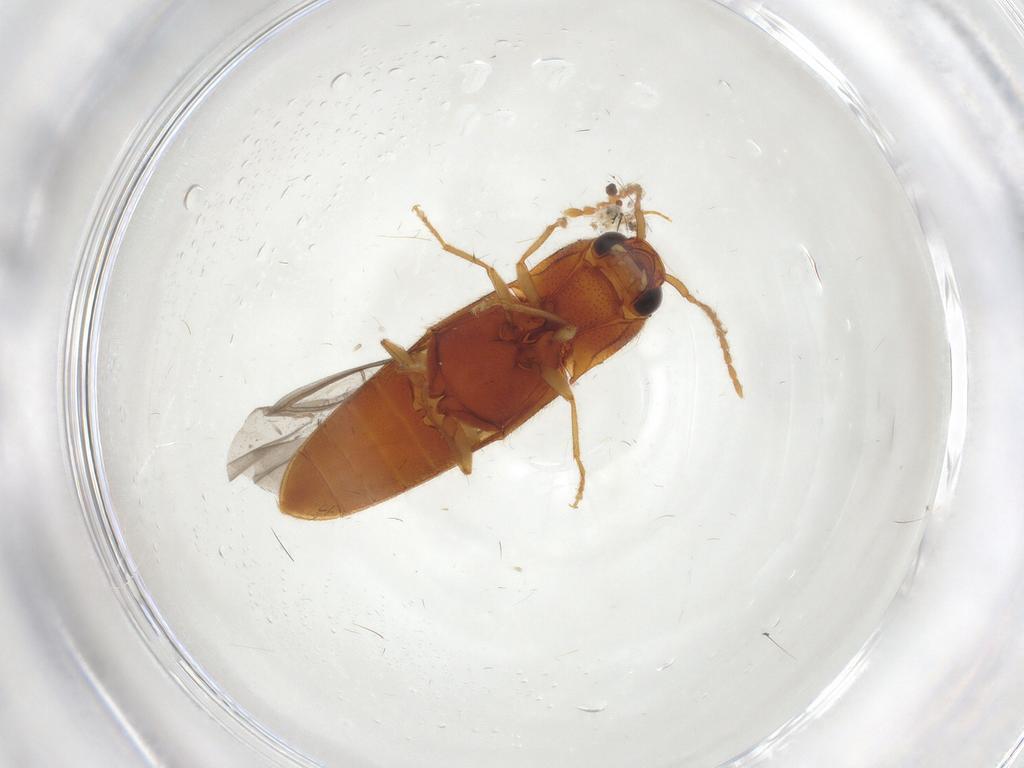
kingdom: Animalia
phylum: Arthropoda
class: Insecta
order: Coleoptera
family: Elateridae
